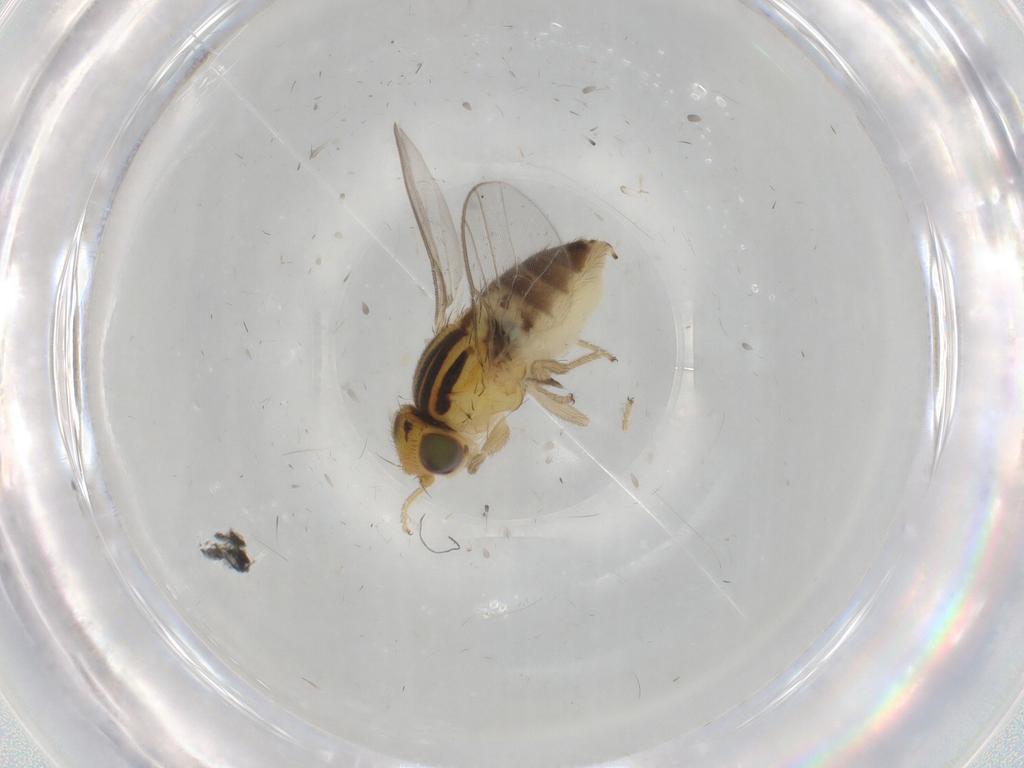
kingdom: Animalia
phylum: Arthropoda
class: Insecta
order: Diptera
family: Chloropidae
